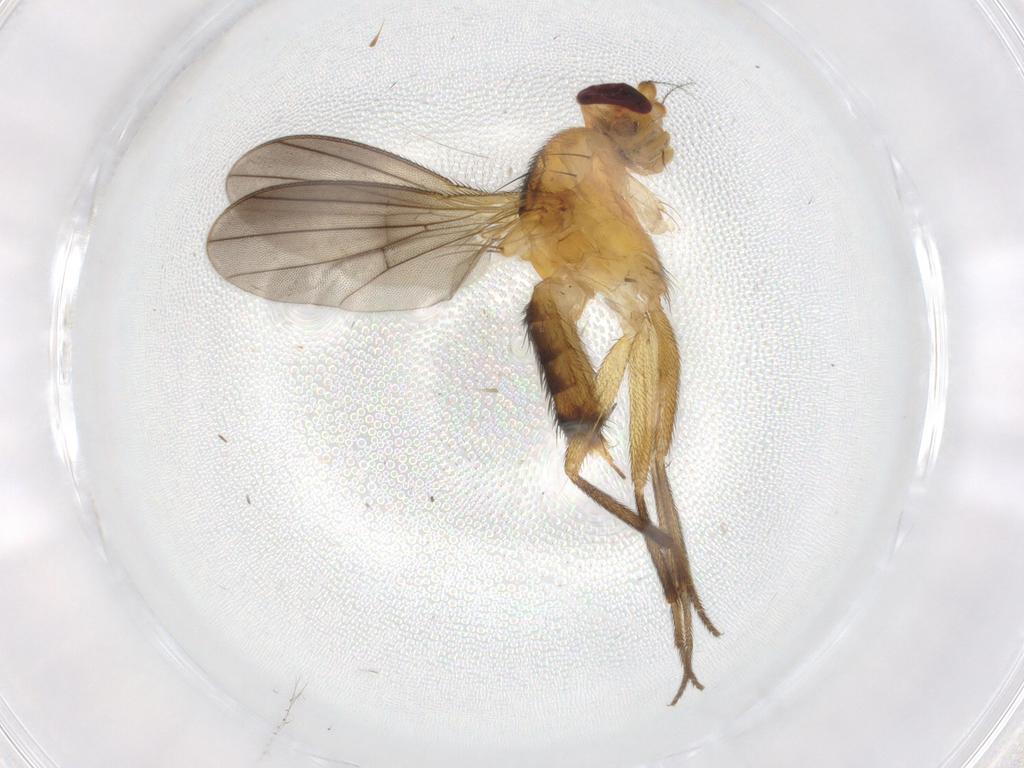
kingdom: Animalia
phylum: Arthropoda
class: Insecta
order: Diptera
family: Clusiidae
